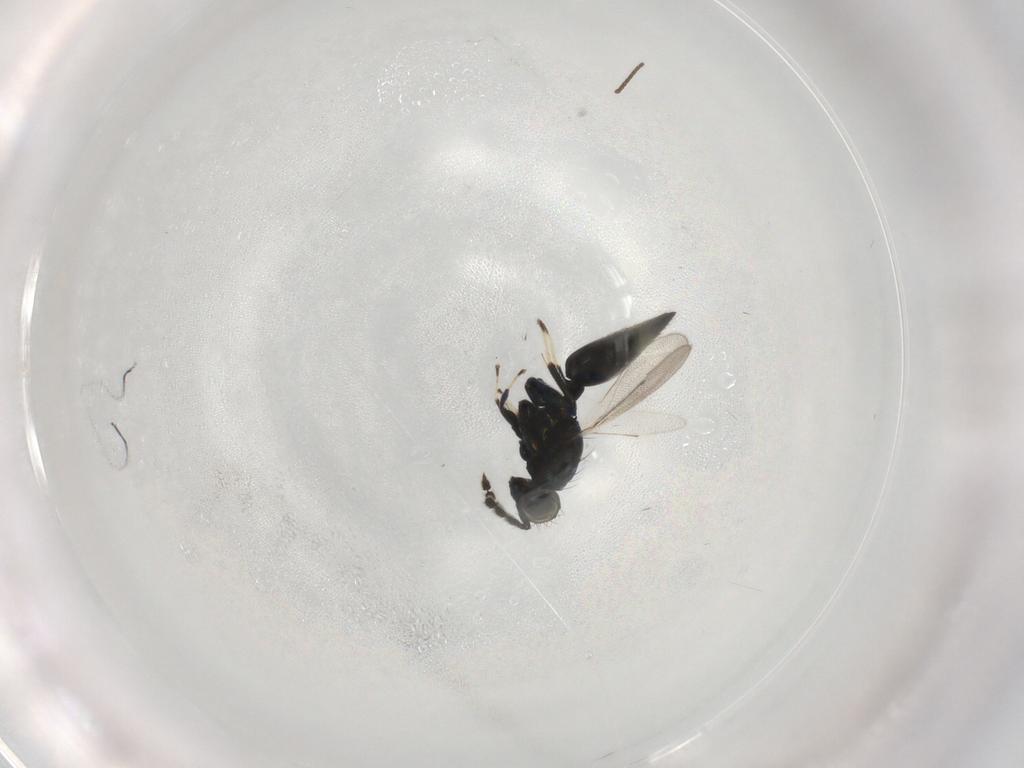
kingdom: Animalia
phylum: Arthropoda
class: Insecta
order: Hymenoptera
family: Eulophidae
